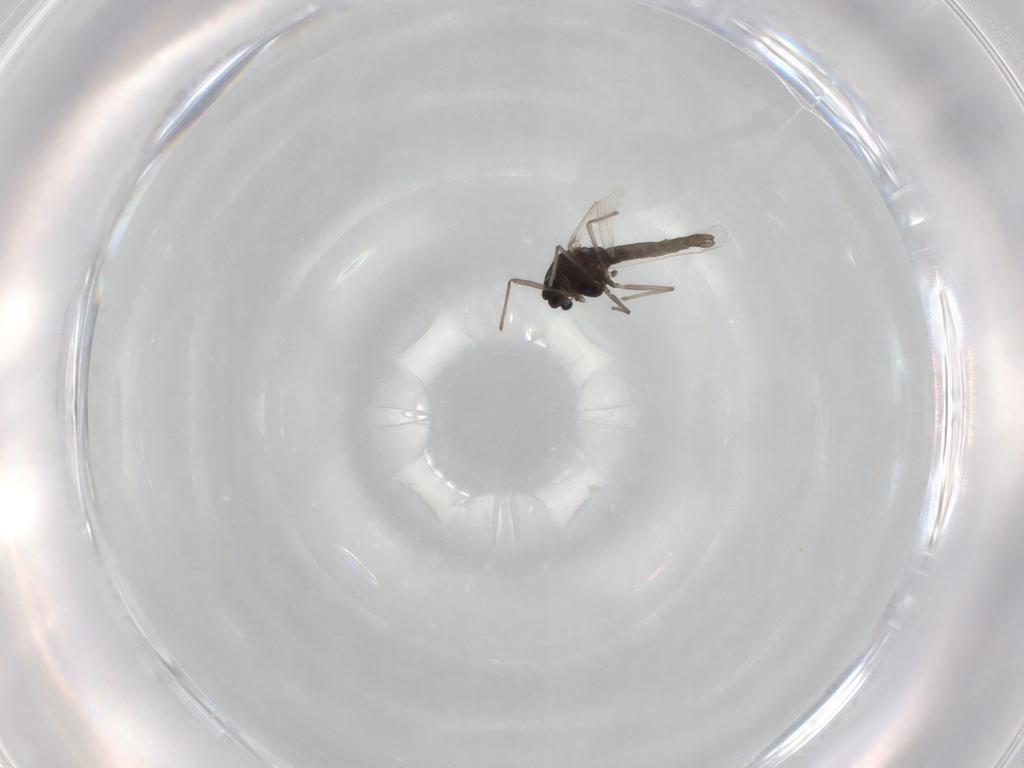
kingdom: Animalia
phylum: Arthropoda
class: Insecta
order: Diptera
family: Chironomidae
